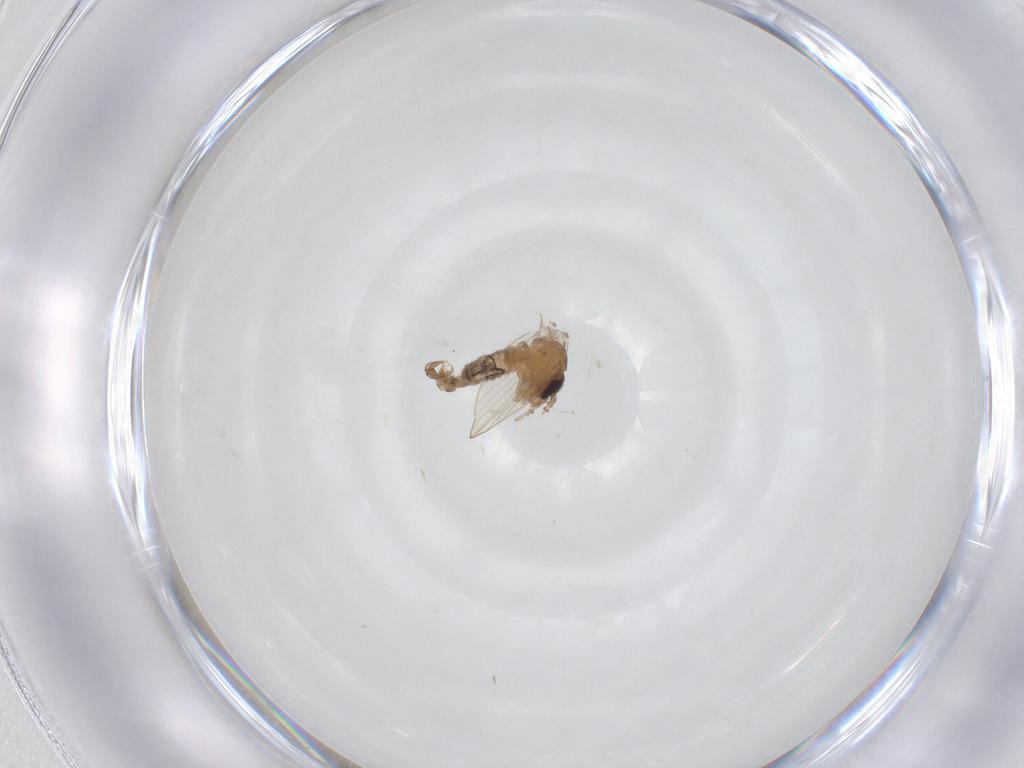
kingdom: Animalia
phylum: Arthropoda
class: Insecta
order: Diptera
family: Psychodidae
